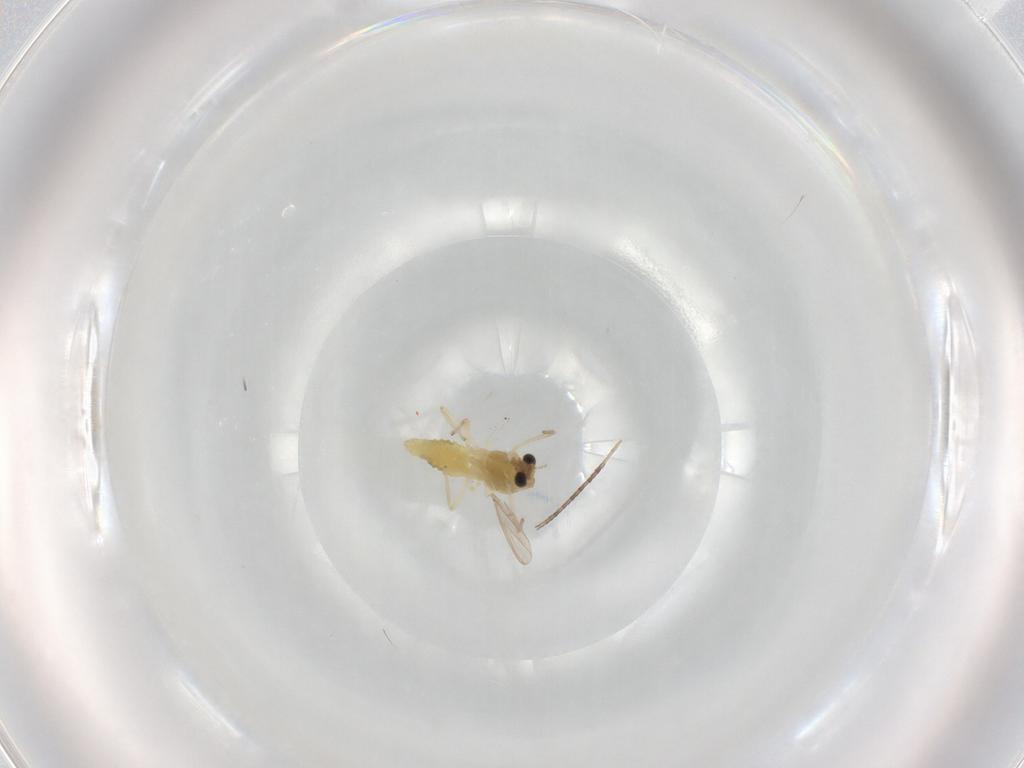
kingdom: Animalia
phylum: Arthropoda
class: Insecta
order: Diptera
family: Chironomidae
